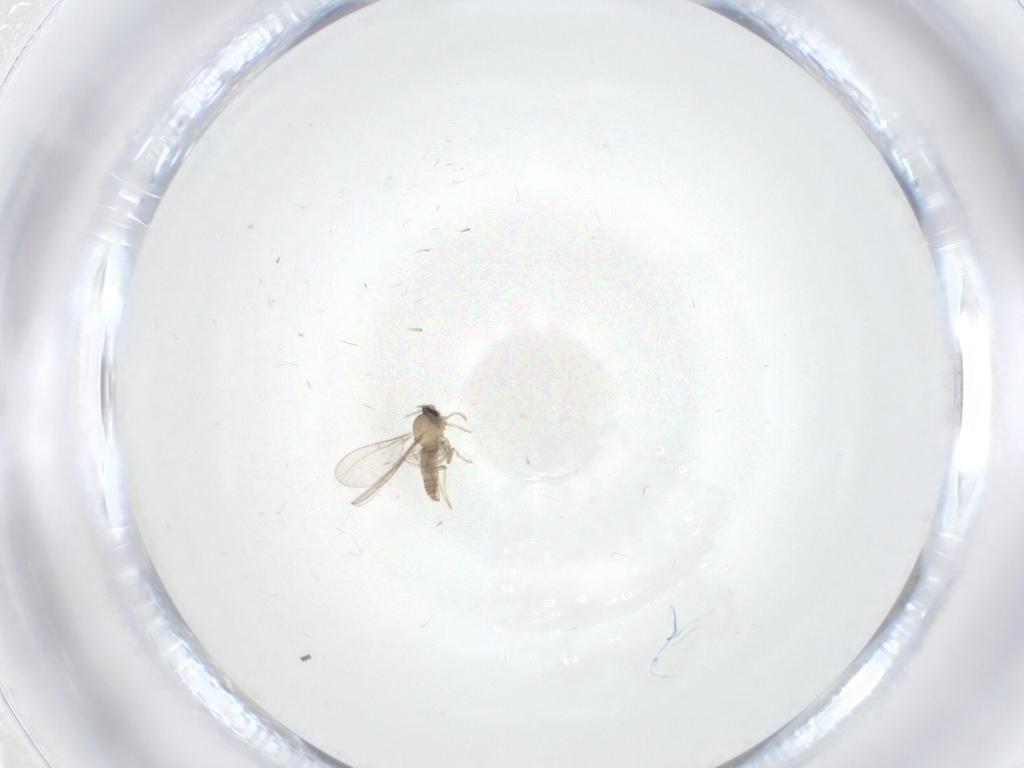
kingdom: Animalia
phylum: Arthropoda
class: Insecta
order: Diptera
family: Cecidomyiidae
